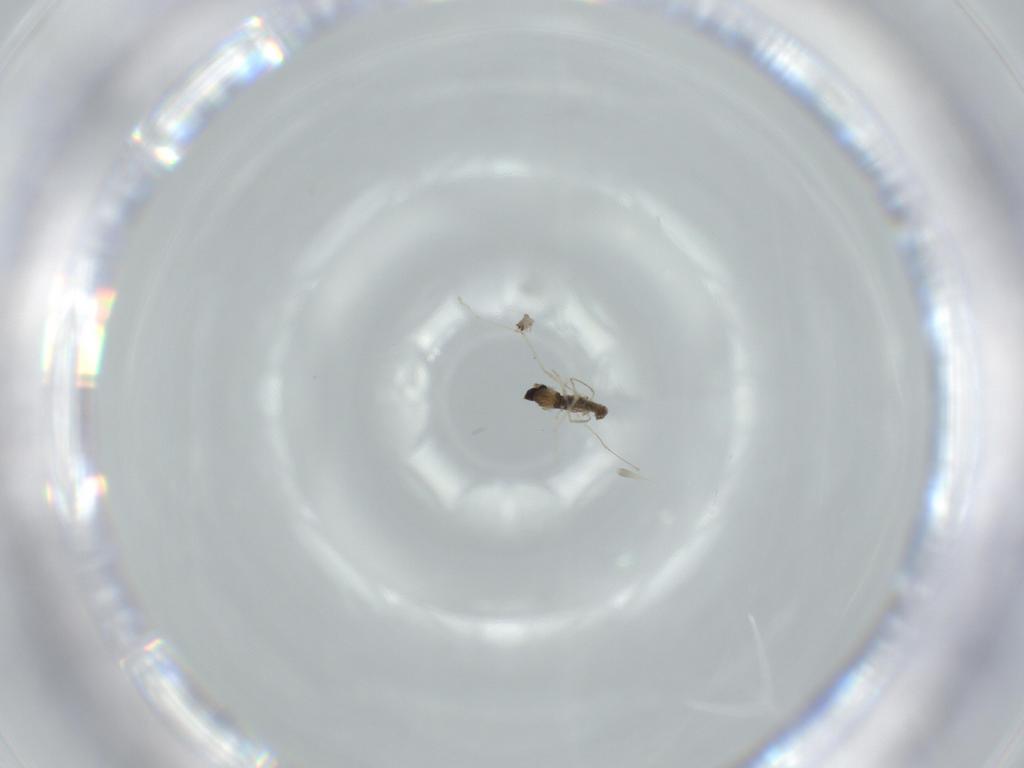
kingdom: Animalia
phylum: Arthropoda
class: Insecta
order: Diptera
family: Cecidomyiidae
